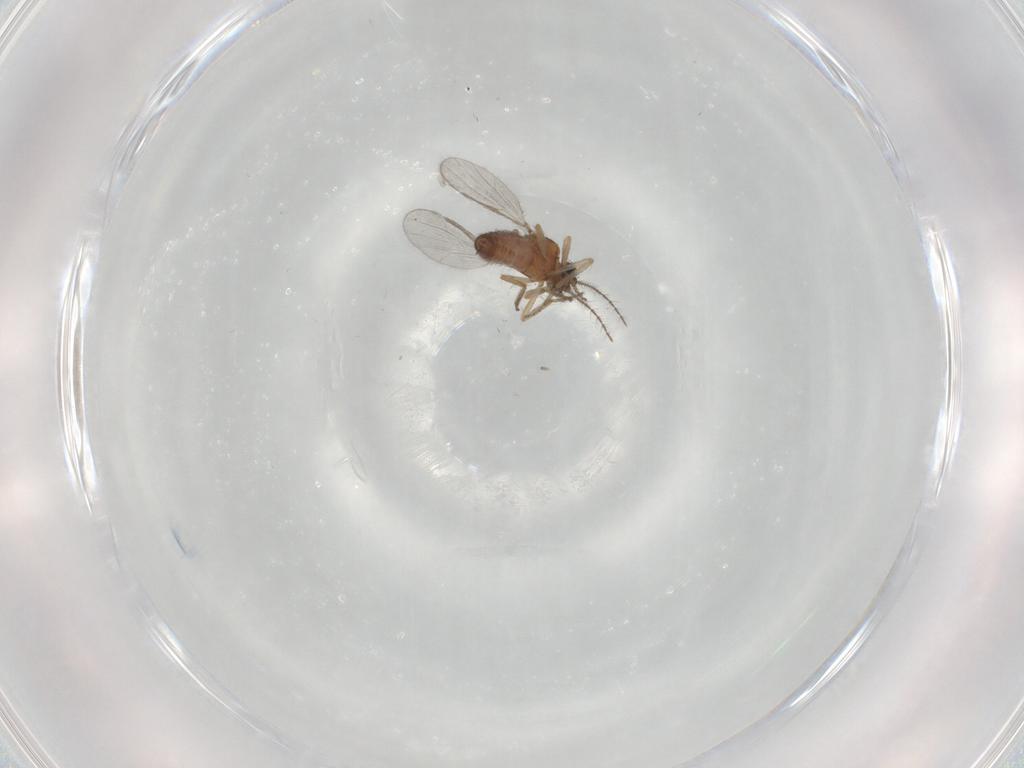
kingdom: Animalia
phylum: Arthropoda
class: Insecta
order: Diptera
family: Ceratopogonidae
